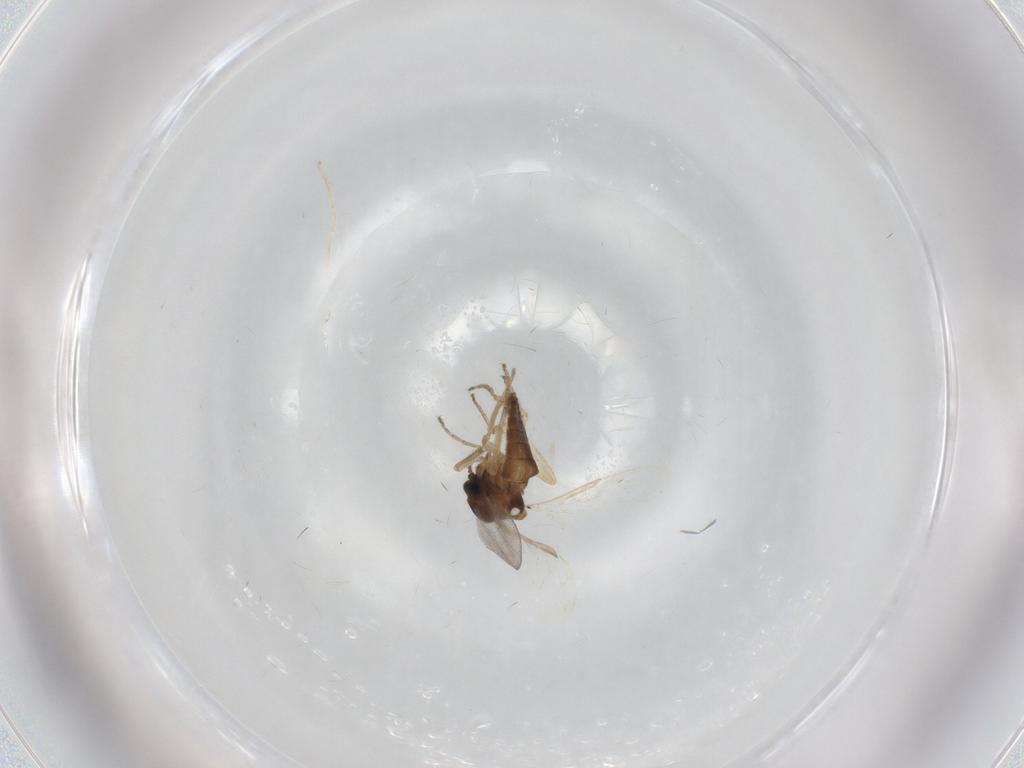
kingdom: Animalia
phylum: Arthropoda
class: Insecta
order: Diptera
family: Ceratopogonidae
